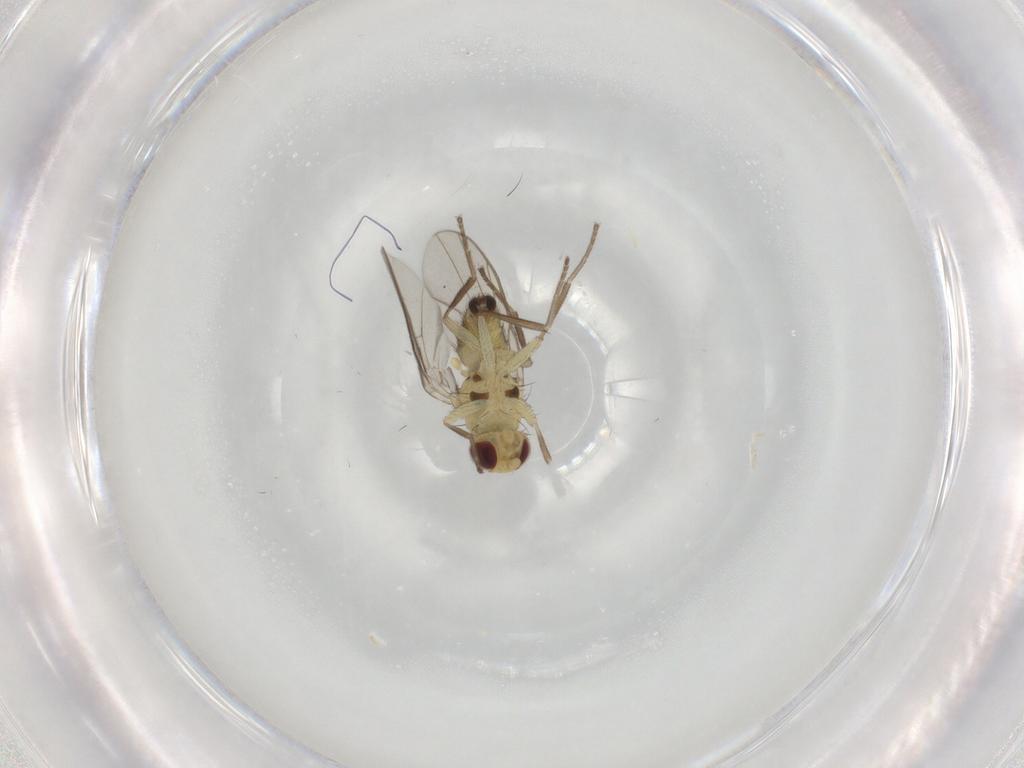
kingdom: Animalia
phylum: Arthropoda
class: Insecta
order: Diptera
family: Agromyzidae
